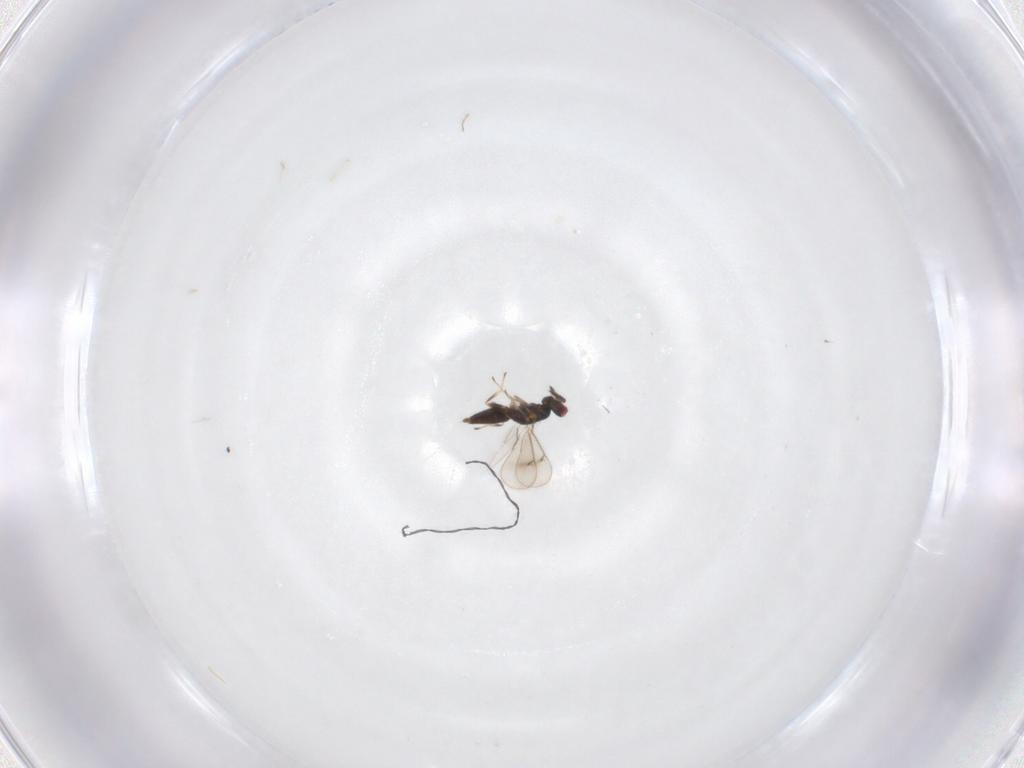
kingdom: Animalia
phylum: Arthropoda
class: Insecta
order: Hymenoptera
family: Eulophidae
